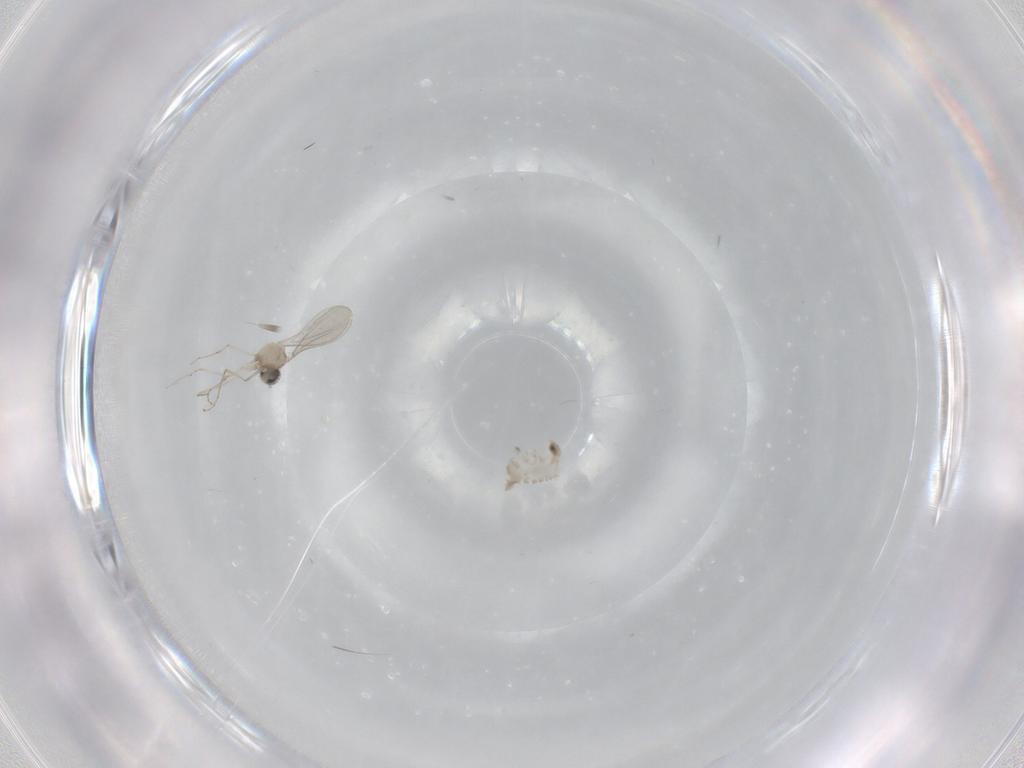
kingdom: Animalia
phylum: Arthropoda
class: Insecta
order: Diptera
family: Cecidomyiidae
